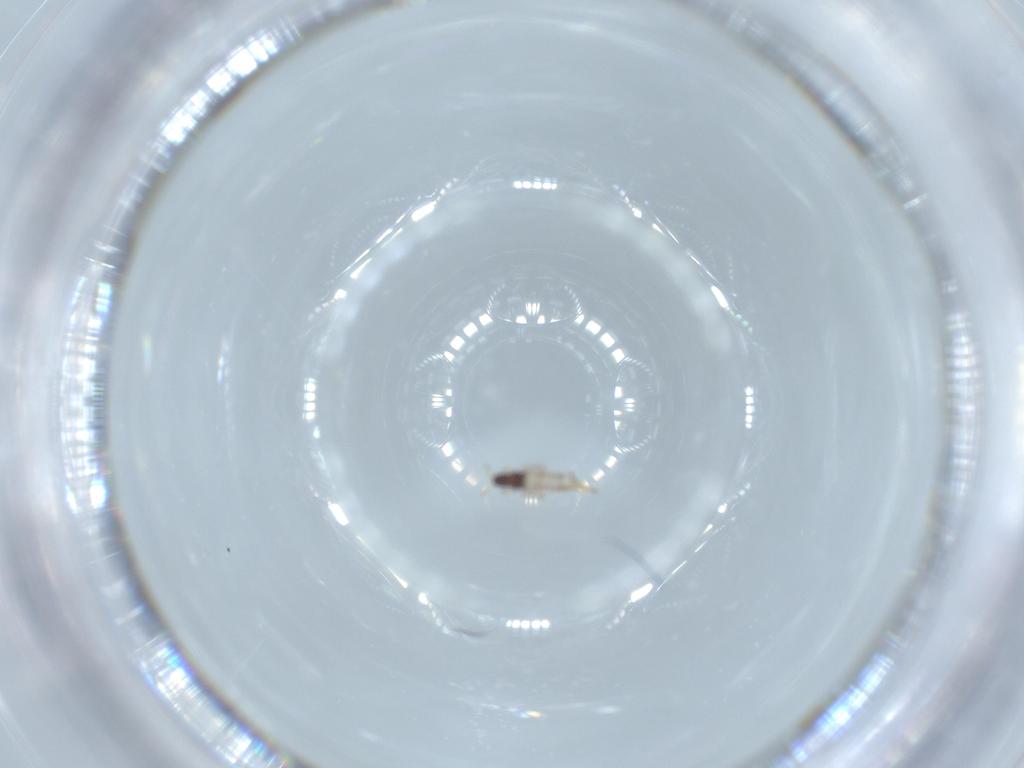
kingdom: Animalia
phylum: Arthropoda
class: Insecta
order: Thysanoptera
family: Phlaeothripidae
